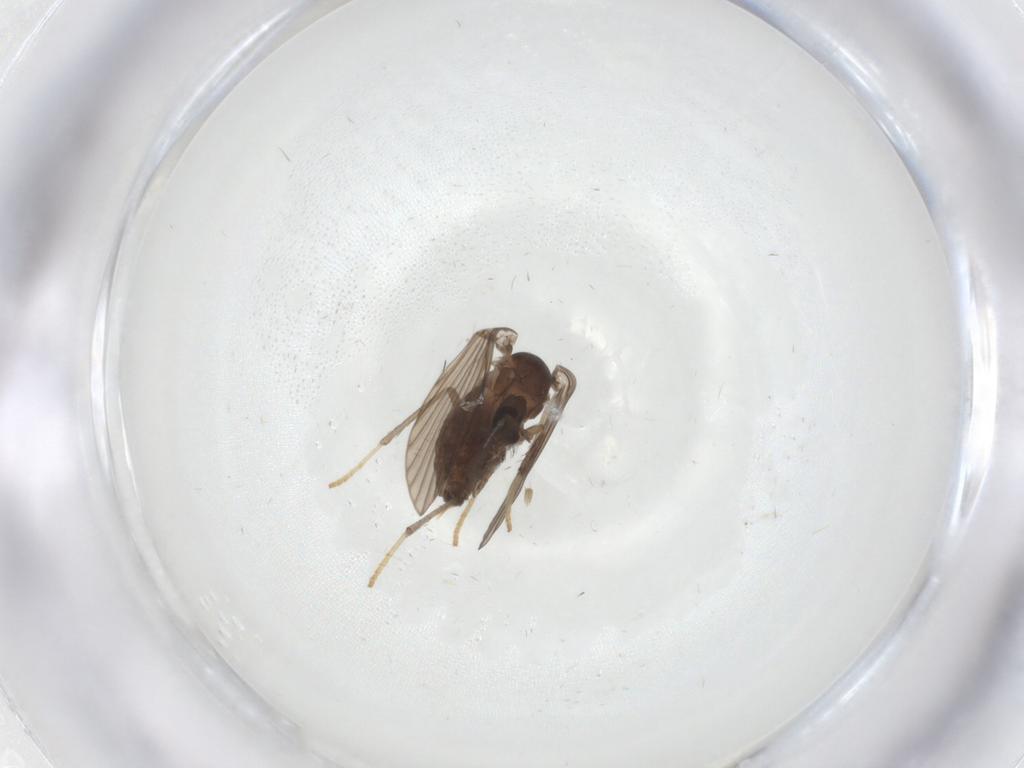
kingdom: Animalia
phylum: Arthropoda
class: Insecta
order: Diptera
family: Psychodidae
